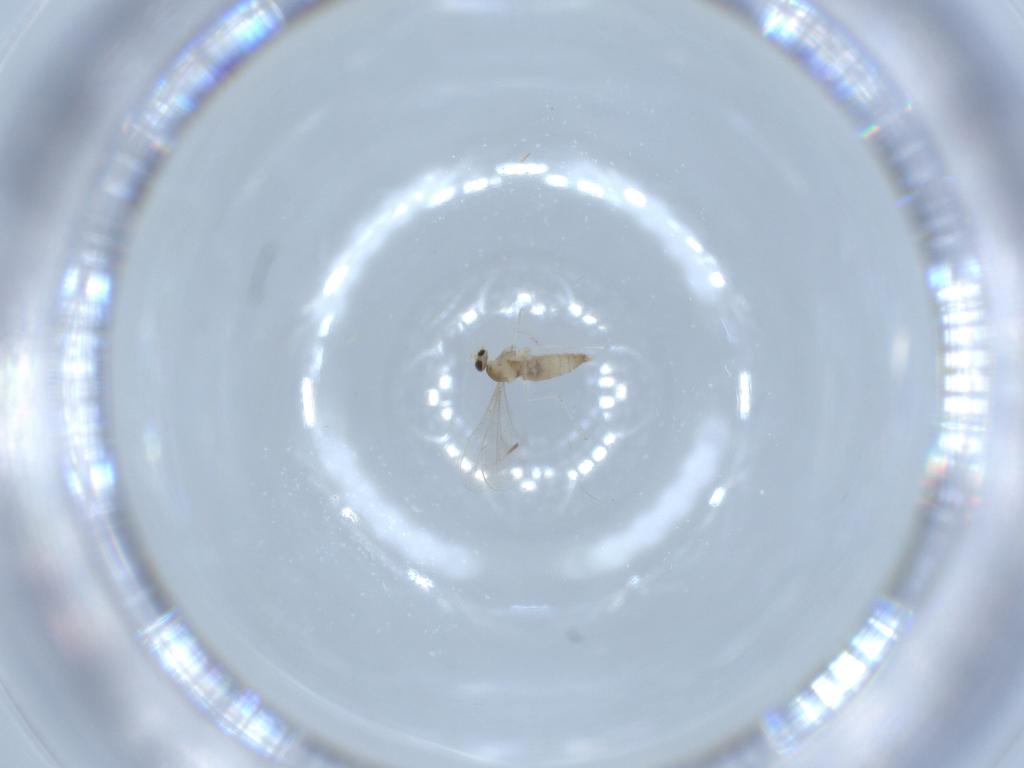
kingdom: Animalia
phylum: Arthropoda
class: Insecta
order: Diptera
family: Cecidomyiidae
